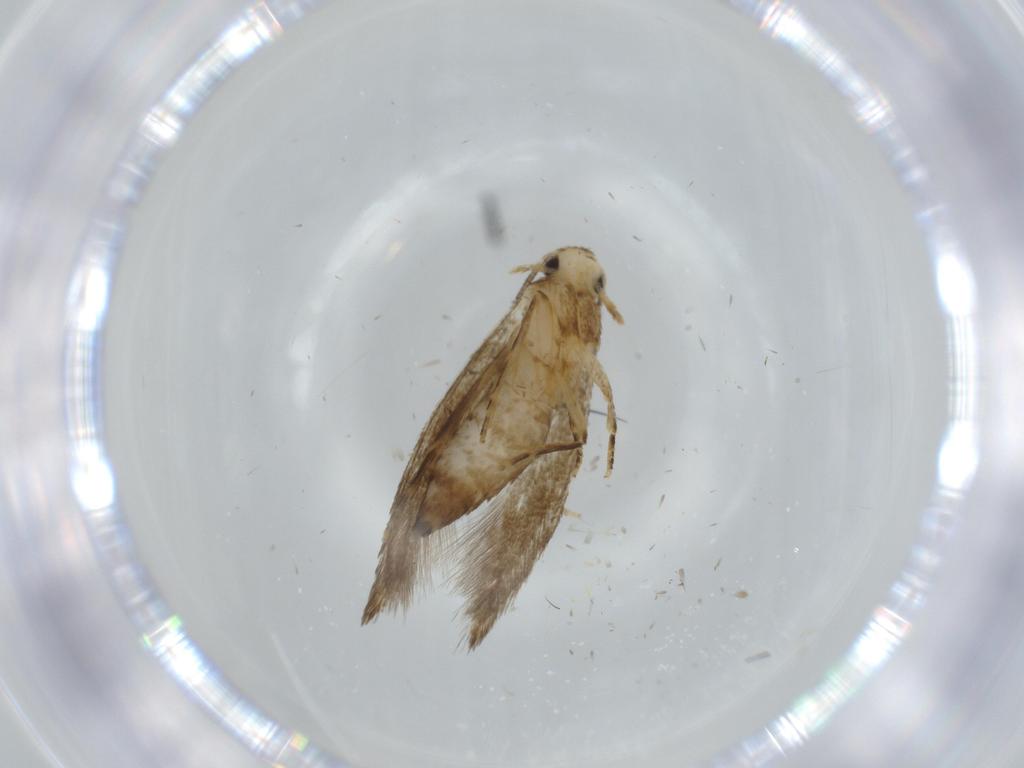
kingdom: Animalia
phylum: Arthropoda
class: Insecta
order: Lepidoptera
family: Tineidae
